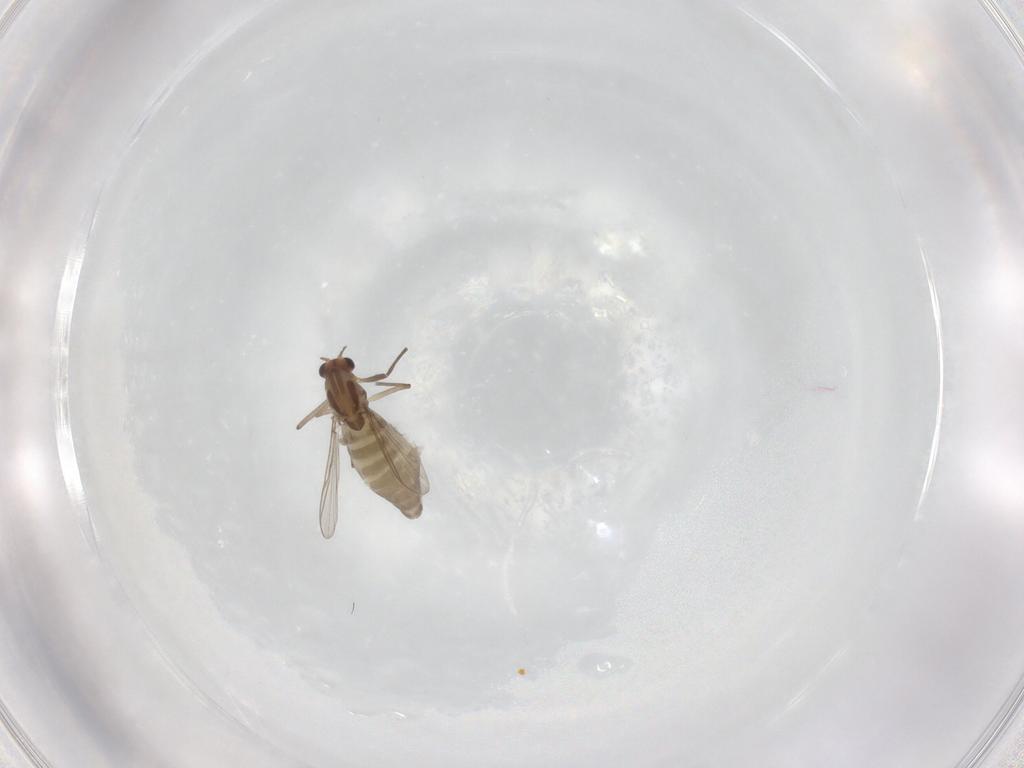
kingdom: Animalia
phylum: Arthropoda
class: Insecta
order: Diptera
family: Chironomidae
